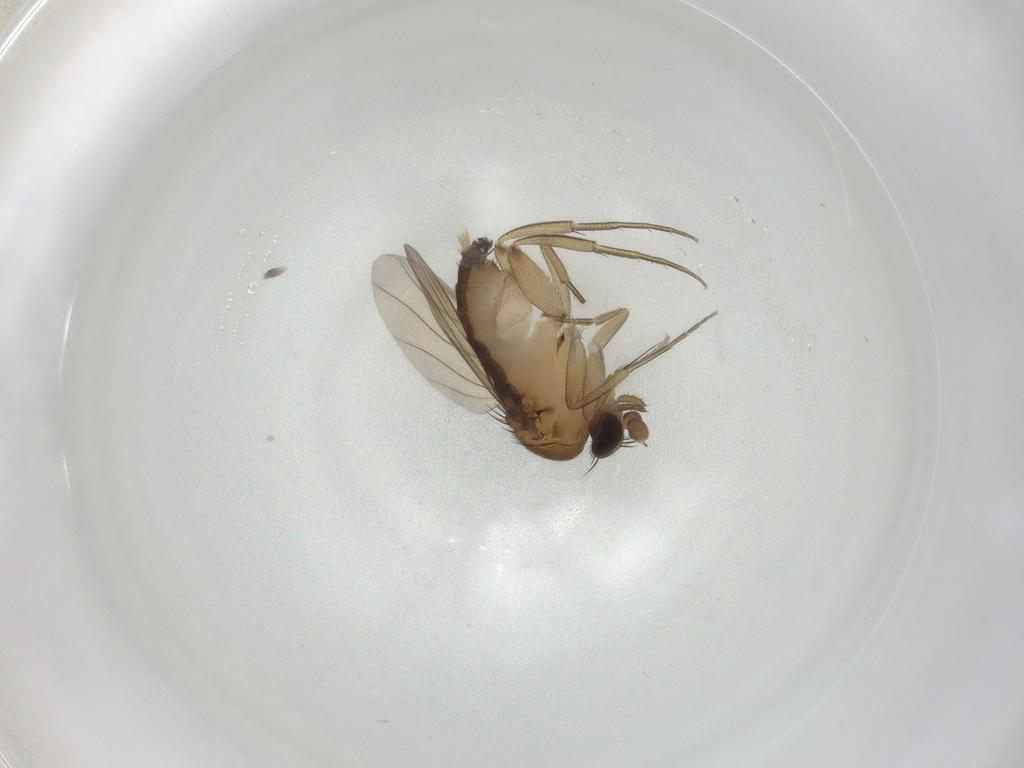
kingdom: Animalia
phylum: Arthropoda
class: Insecta
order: Diptera
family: Phoridae
